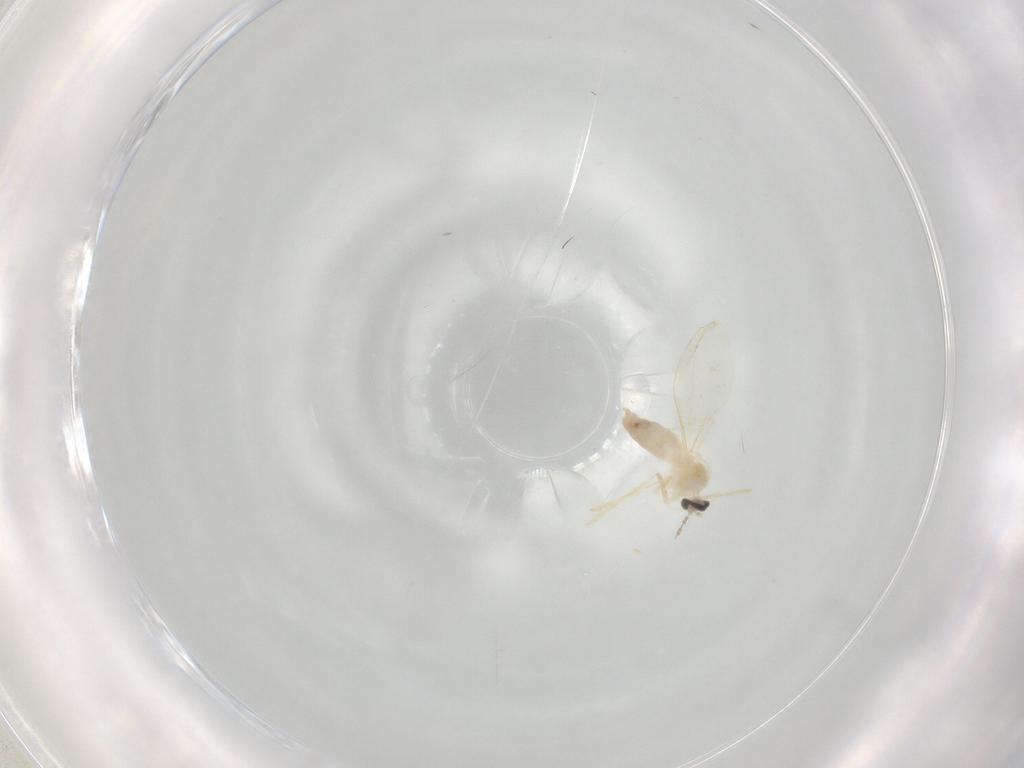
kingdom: Animalia
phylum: Arthropoda
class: Insecta
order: Diptera
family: Cecidomyiidae
